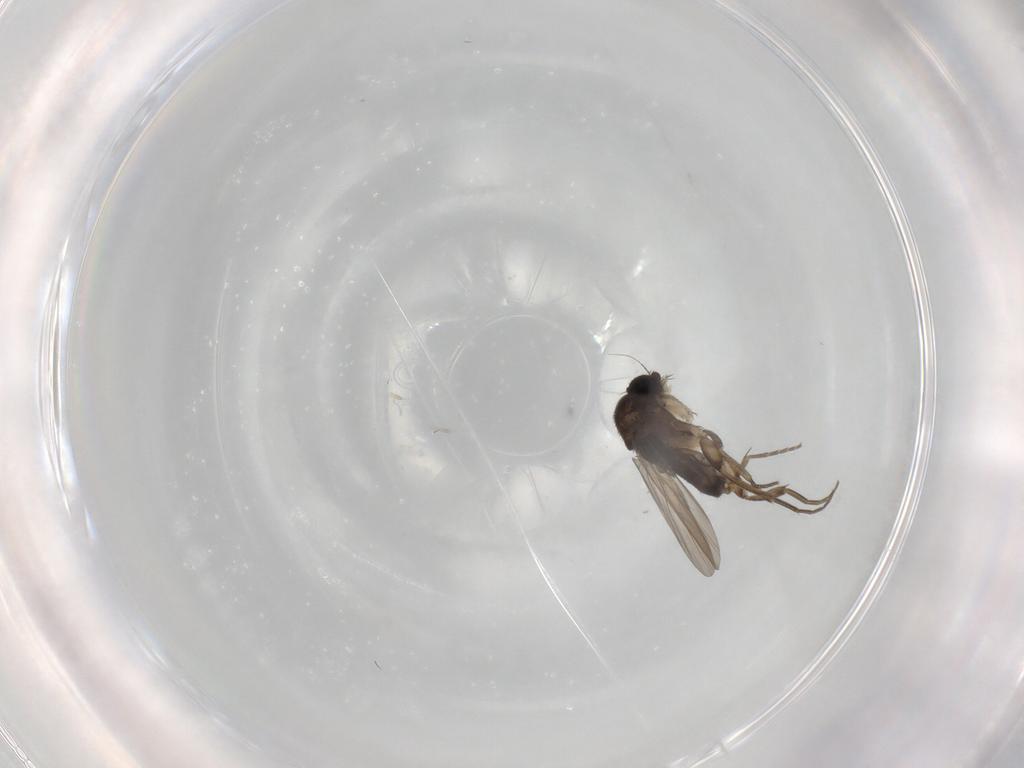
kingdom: Animalia
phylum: Arthropoda
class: Insecta
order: Diptera
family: Phoridae
